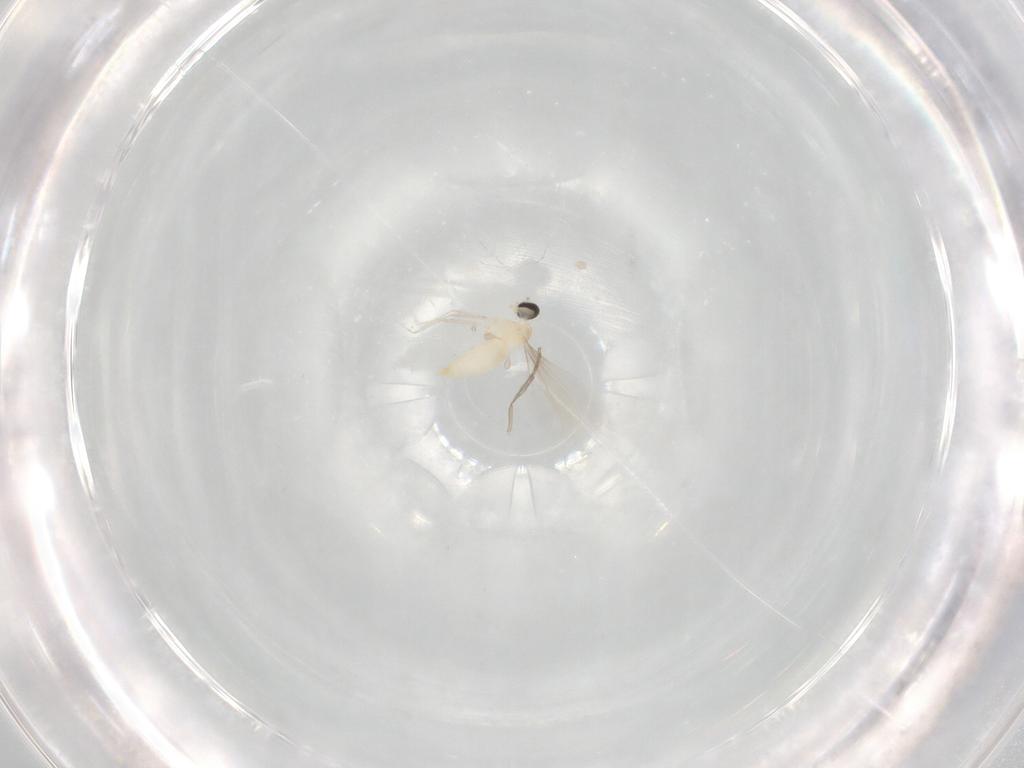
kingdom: Animalia
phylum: Arthropoda
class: Insecta
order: Diptera
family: Cecidomyiidae
